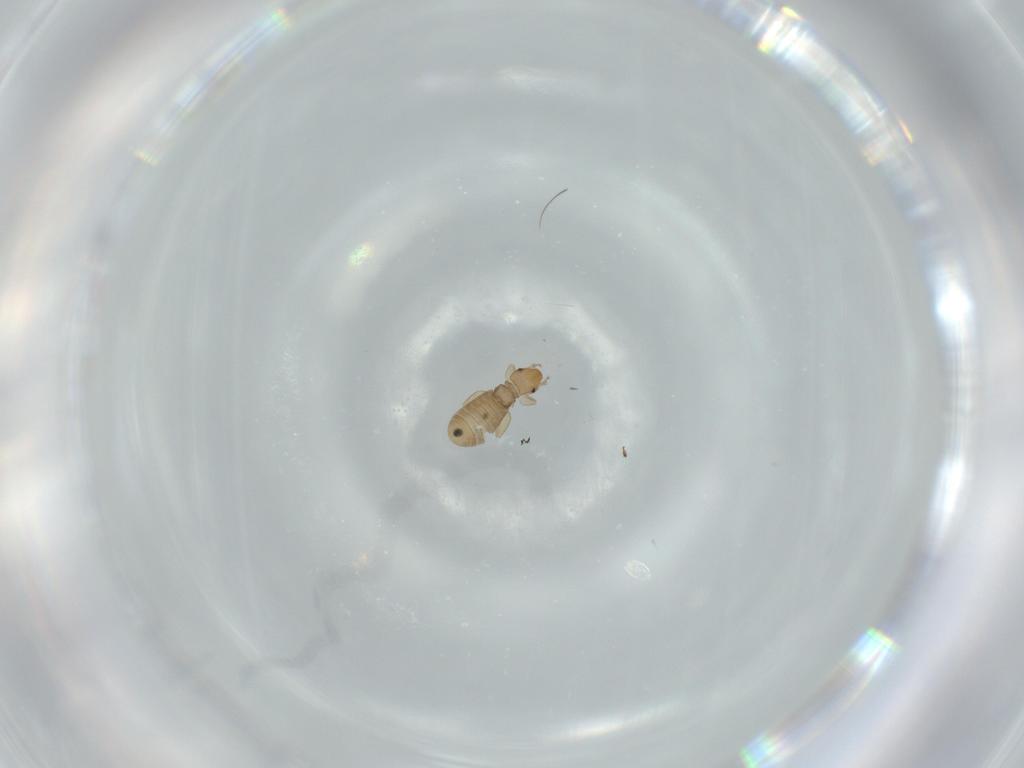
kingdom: Animalia
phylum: Arthropoda
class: Insecta
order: Psocodea
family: Liposcelididae
